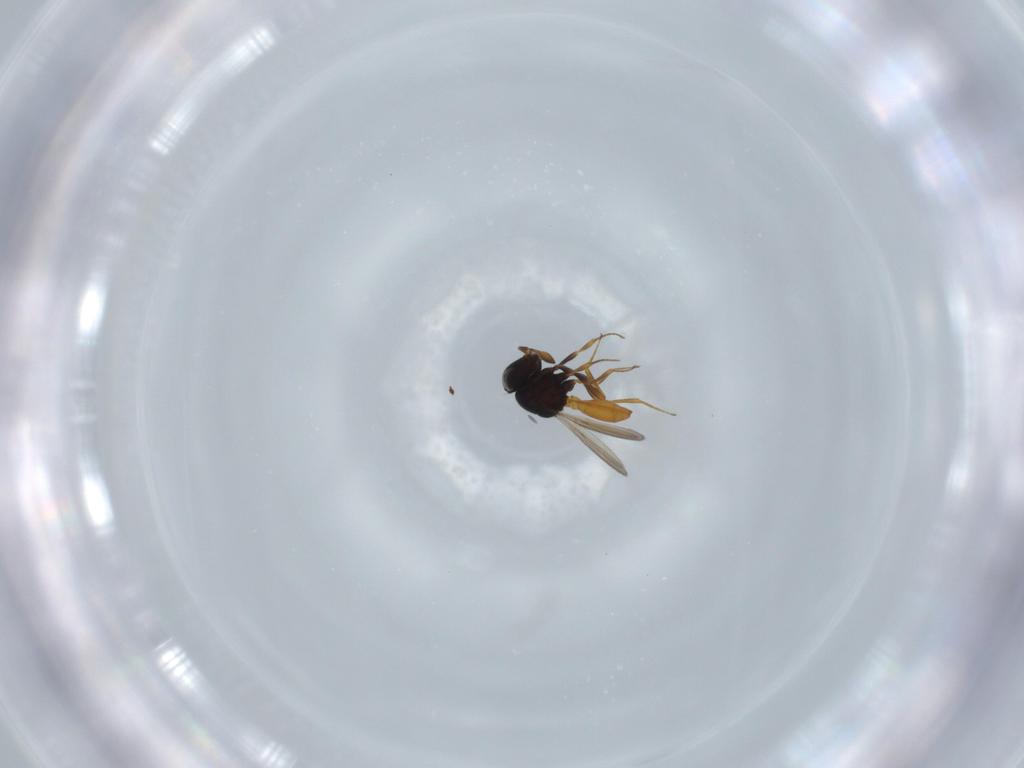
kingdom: Animalia
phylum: Arthropoda
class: Insecta
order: Hymenoptera
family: Scelionidae
